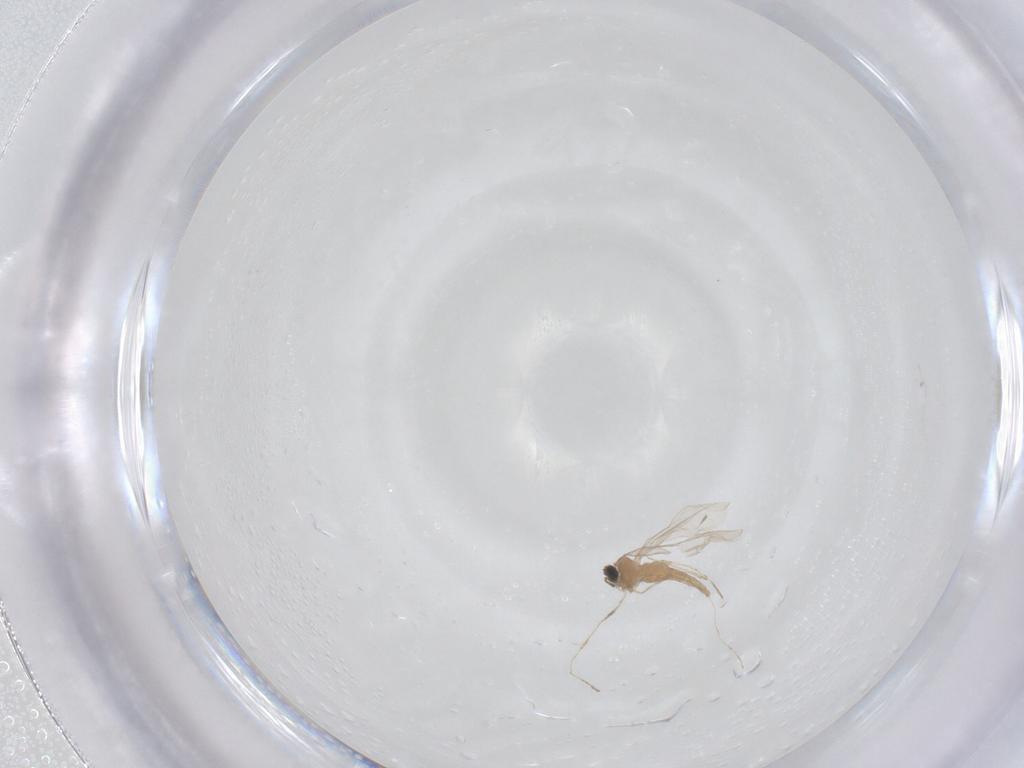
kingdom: Animalia
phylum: Arthropoda
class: Insecta
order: Diptera
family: Drosophilidae
